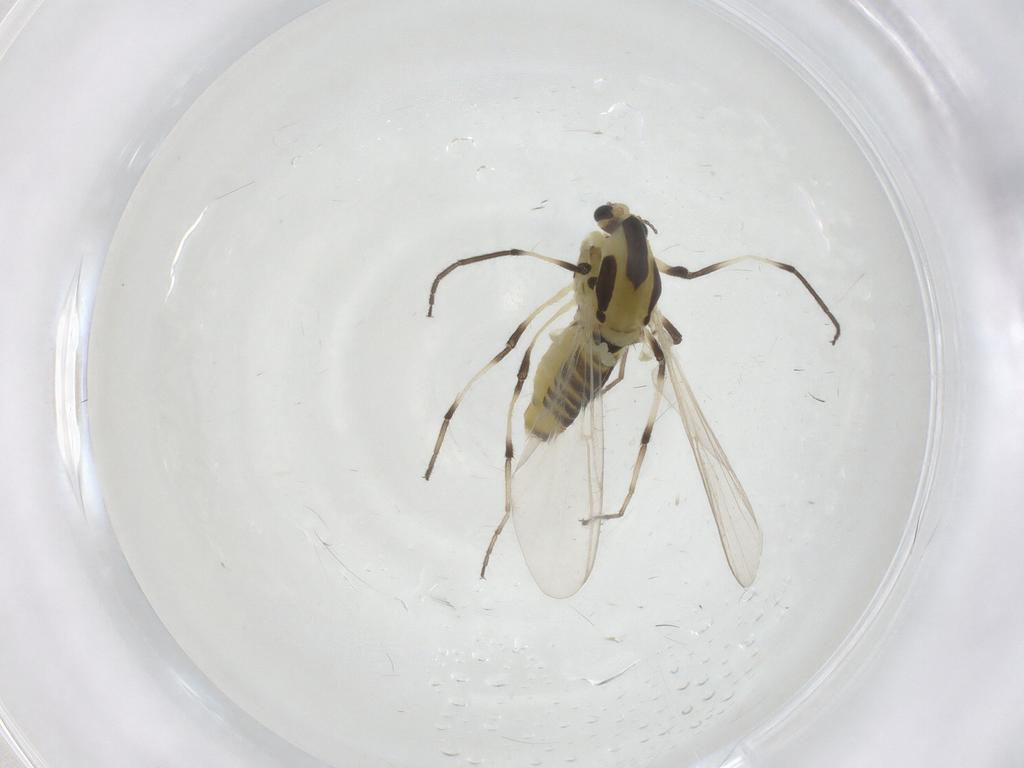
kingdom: Animalia
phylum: Arthropoda
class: Insecta
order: Diptera
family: Chironomidae
